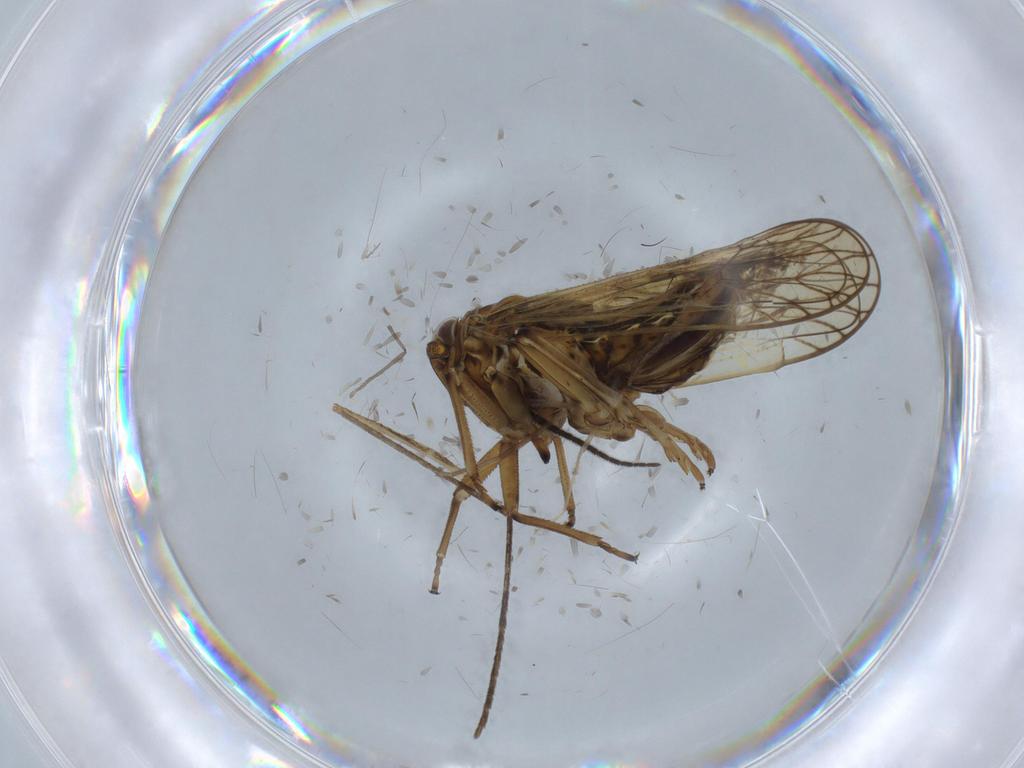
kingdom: Animalia
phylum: Arthropoda
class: Insecta
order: Hemiptera
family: Delphacidae
